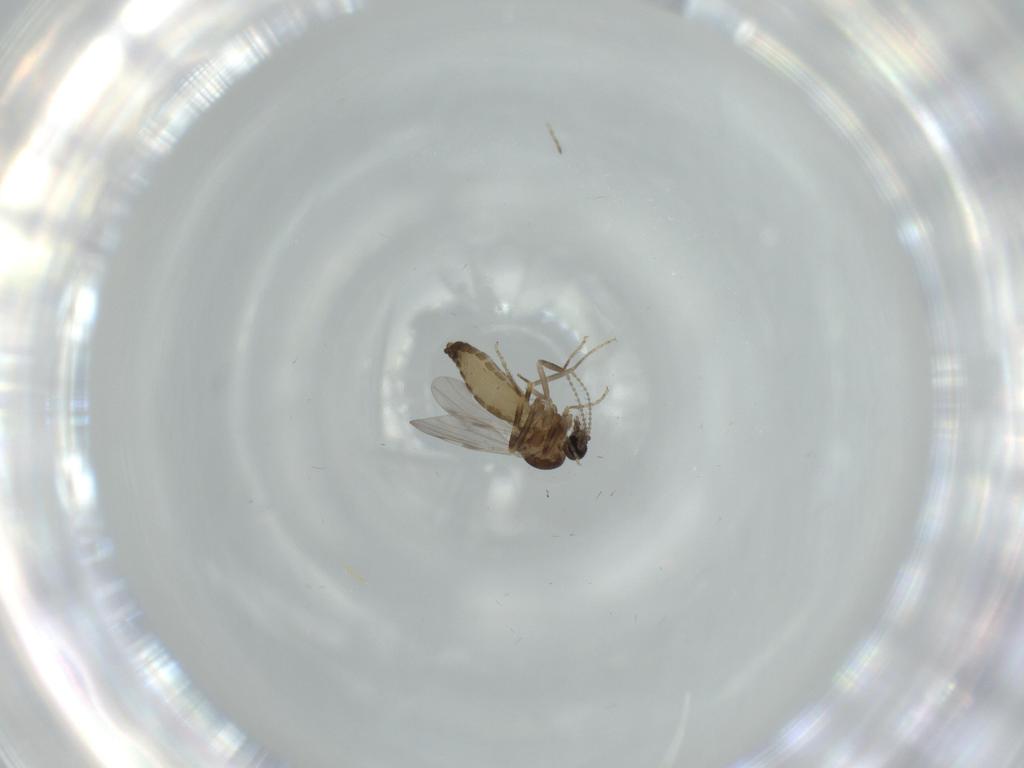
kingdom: Animalia
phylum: Arthropoda
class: Insecta
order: Diptera
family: Ceratopogonidae
